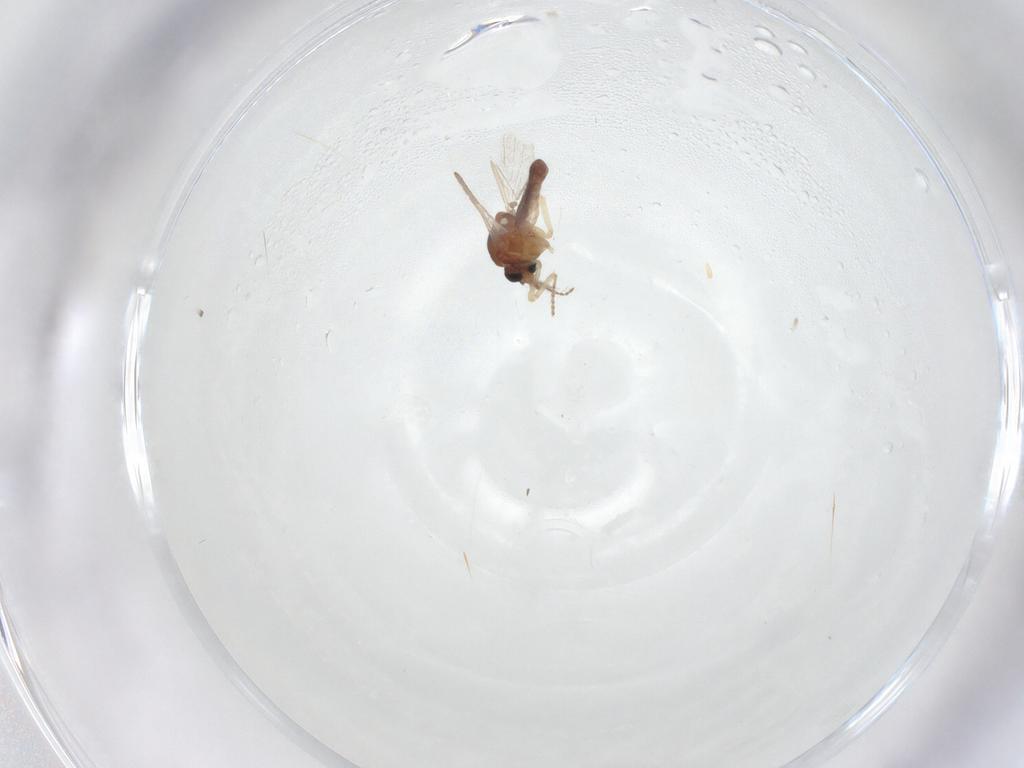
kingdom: Animalia
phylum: Arthropoda
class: Insecta
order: Diptera
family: Ceratopogonidae
